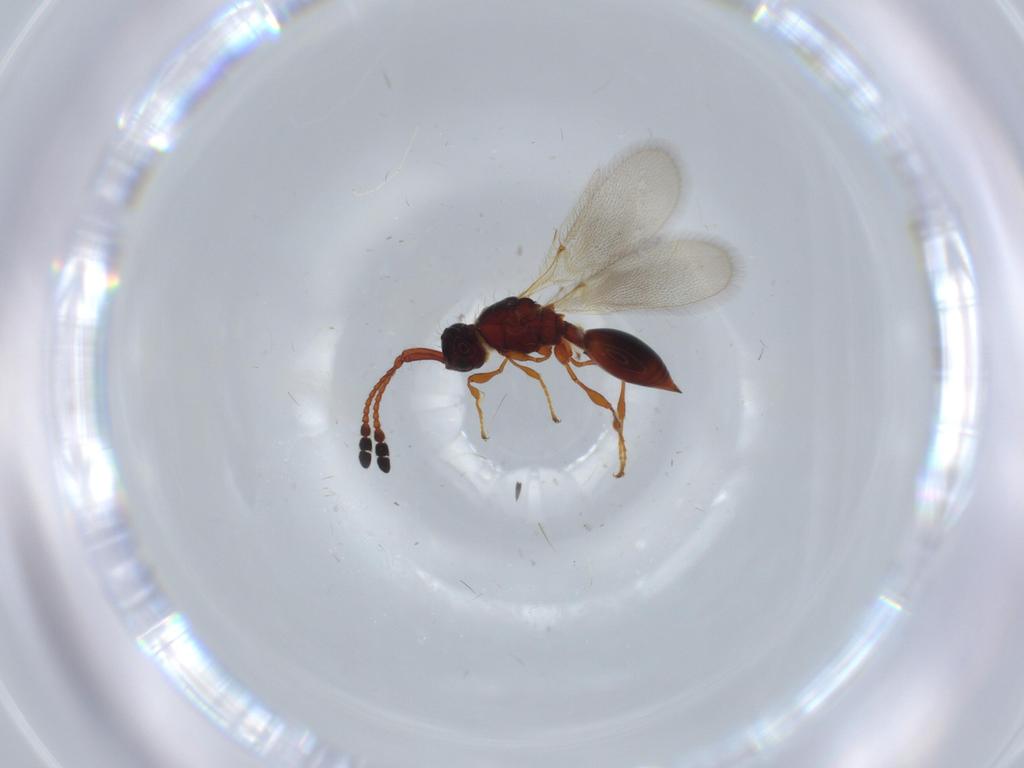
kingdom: Animalia
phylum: Arthropoda
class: Insecta
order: Hymenoptera
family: Diapriidae
